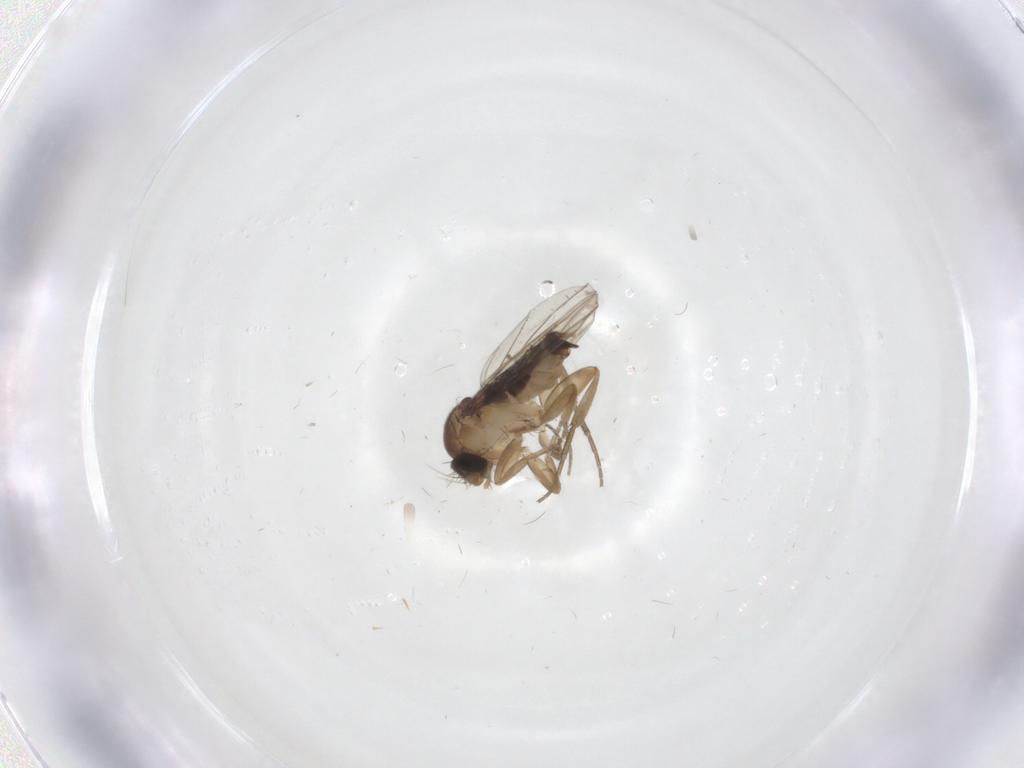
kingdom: Animalia
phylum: Arthropoda
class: Insecta
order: Diptera
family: Phoridae
